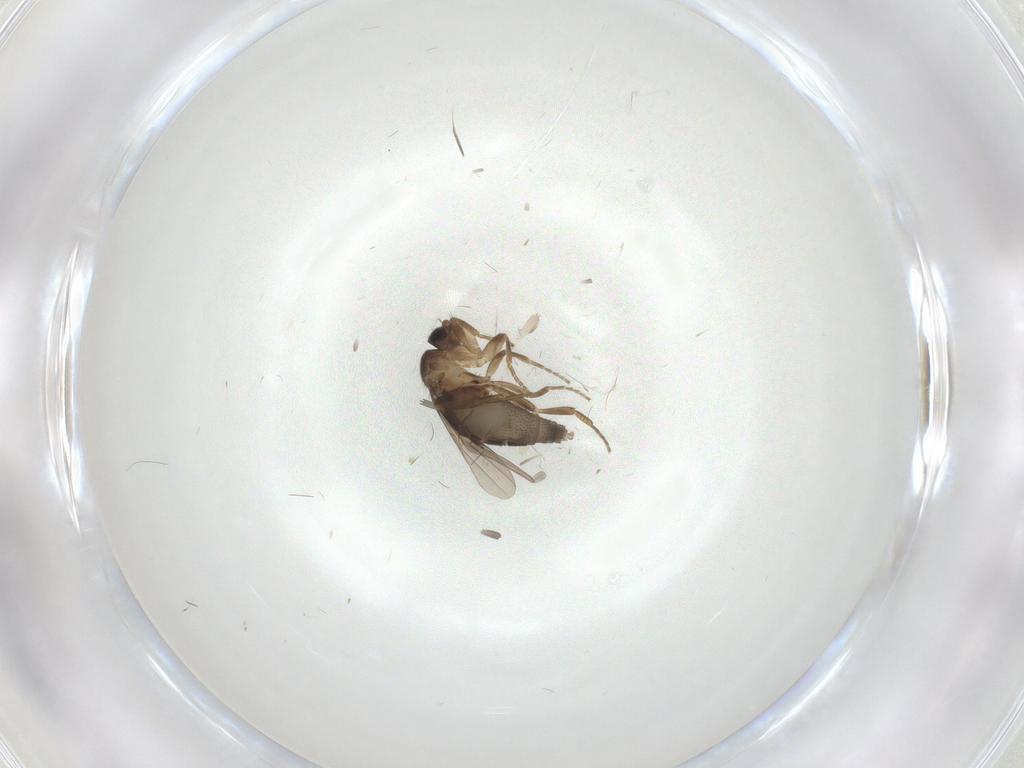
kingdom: Animalia
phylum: Arthropoda
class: Insecta
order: Diptera
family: Phoridae
